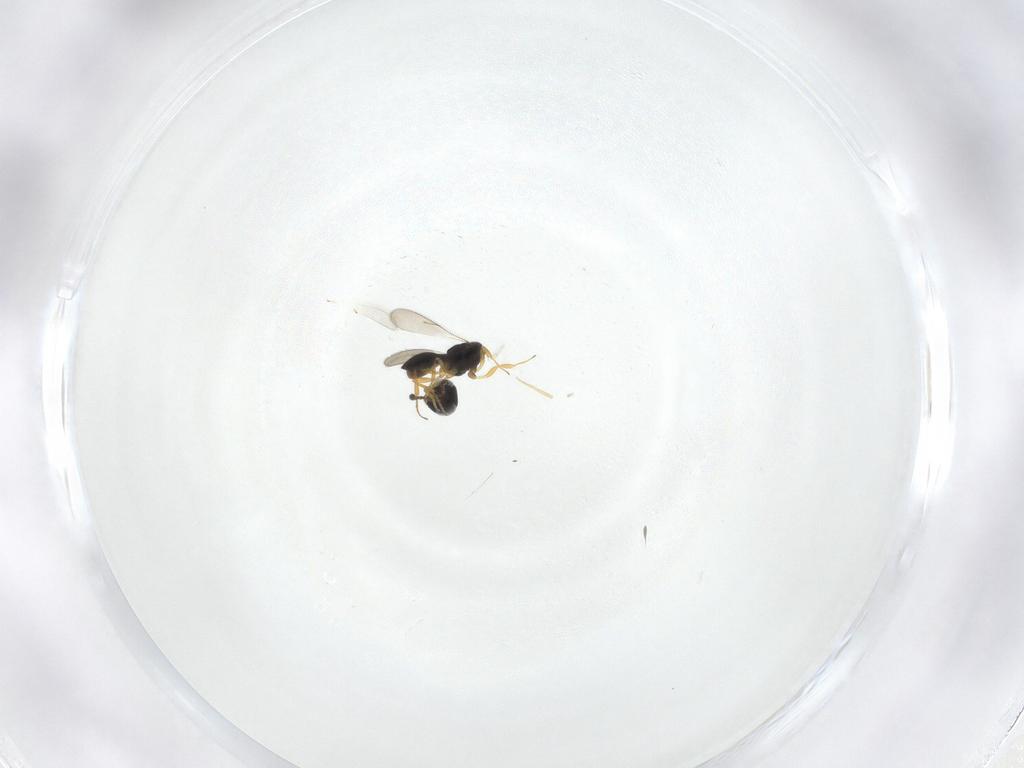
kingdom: Animalia
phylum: Arthropoda
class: Insecta
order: Hymenoptera
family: Scelionidae
